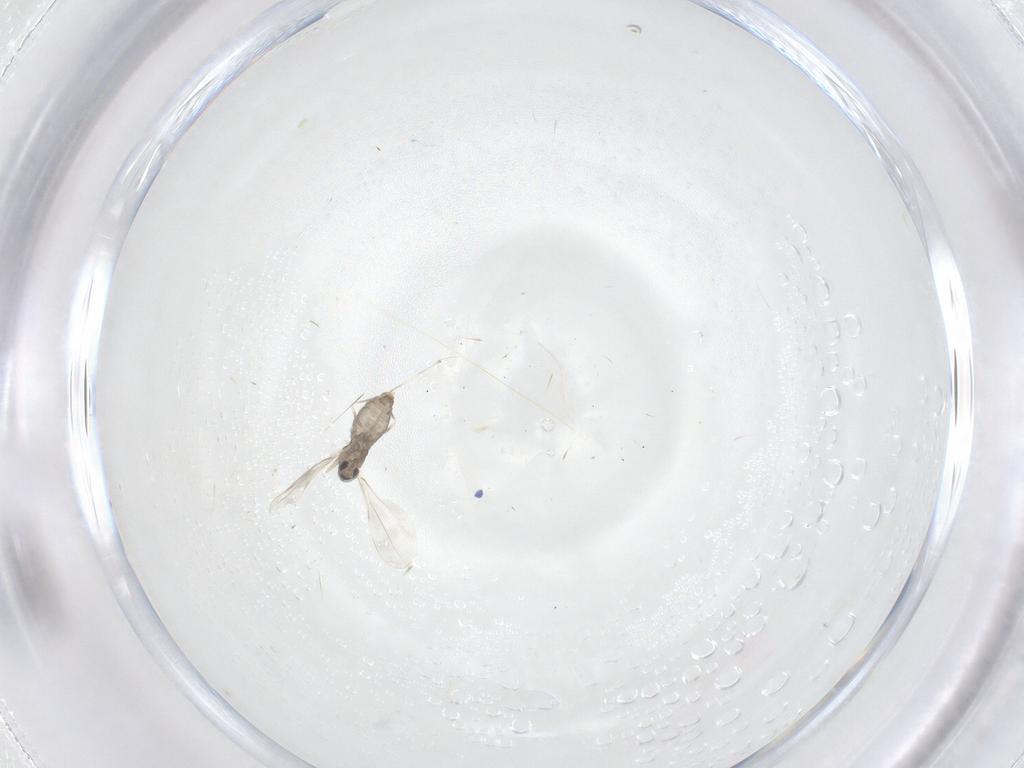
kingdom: Animalia
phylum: Arthropoda
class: Insecta
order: Diptera
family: Cecidomyiidae
